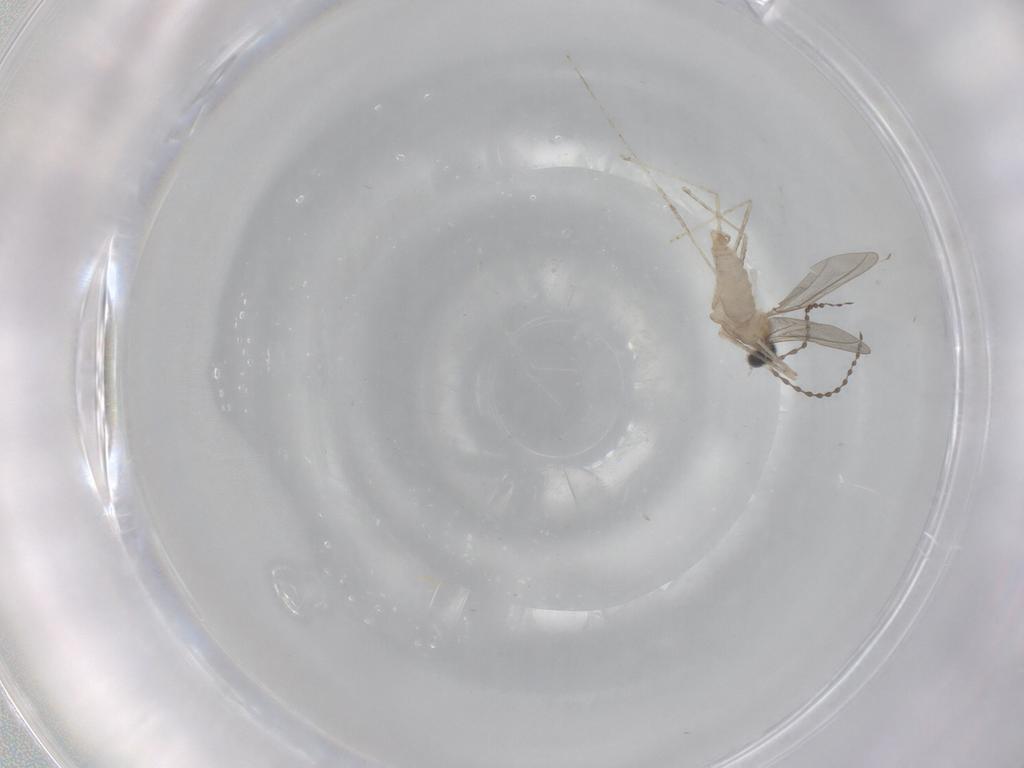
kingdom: Animalia
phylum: Arthropoda
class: Insecta
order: Diptera
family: Cecidomyiidae
